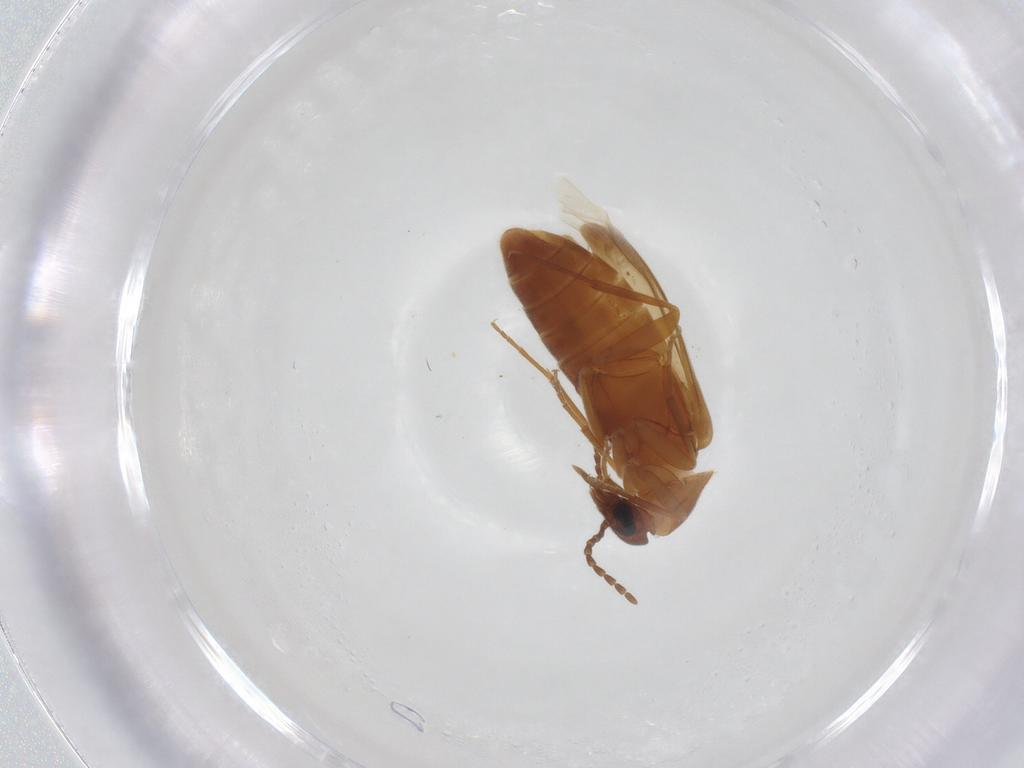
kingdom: Animalia
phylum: Arthropoda
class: Insecta
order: Coleoptera
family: Scraptiidae
